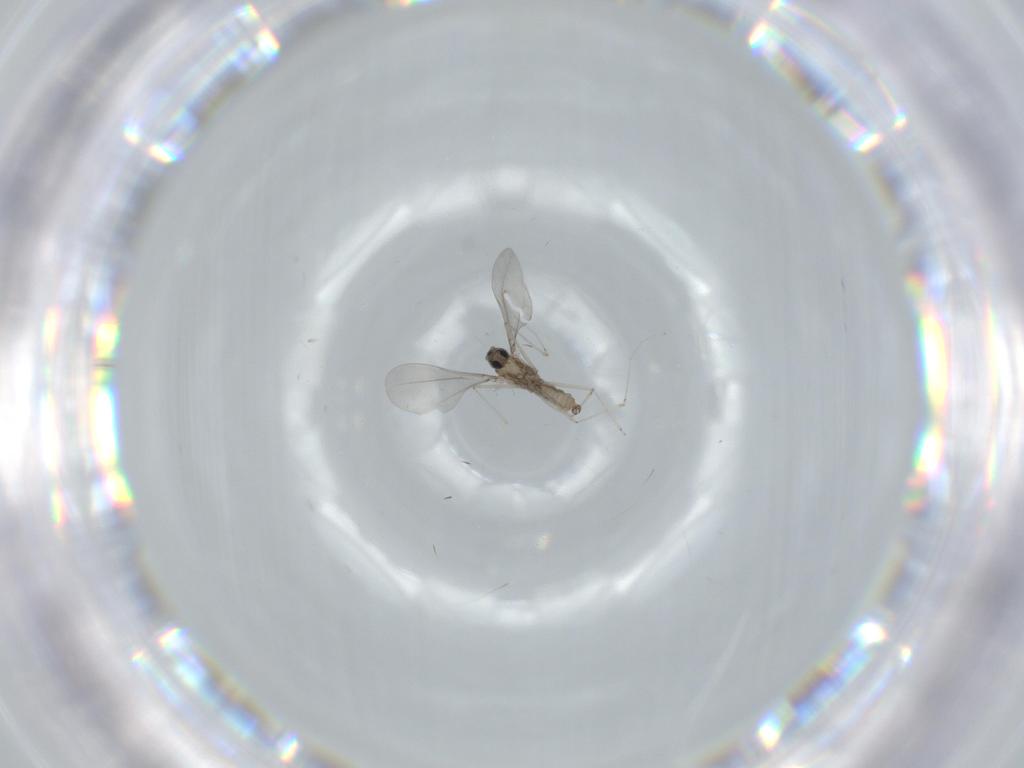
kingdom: Animalia
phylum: Arthropoda
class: Insecta
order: Diptera
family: Cecidomyiidae
